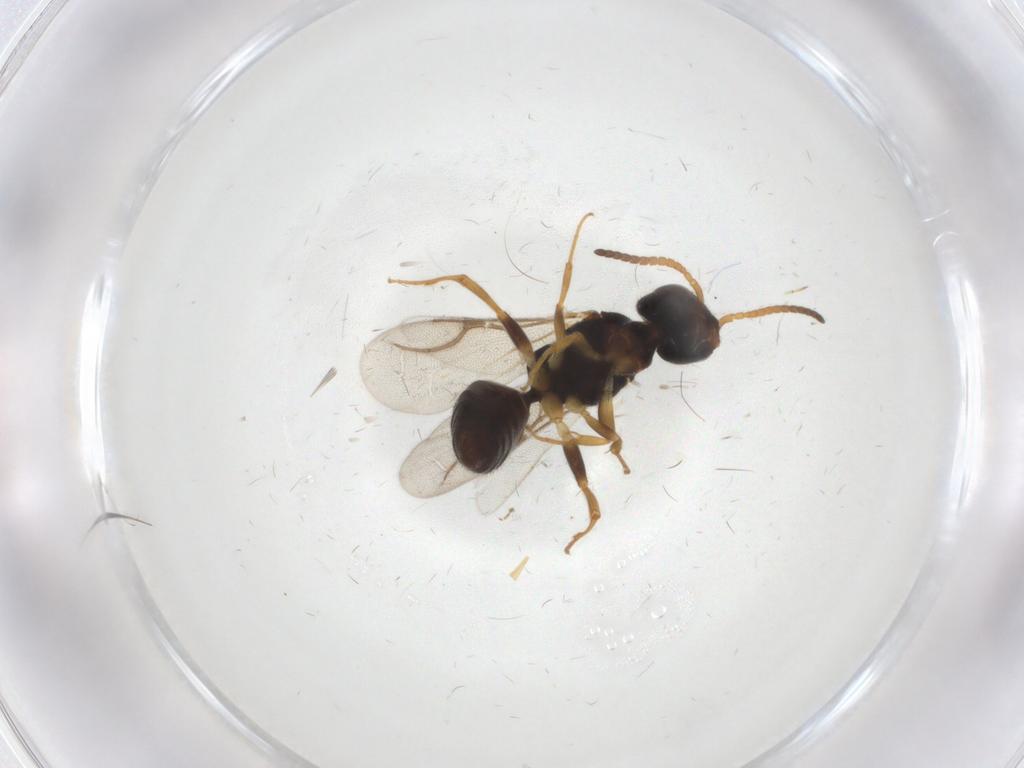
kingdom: Animalia
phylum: Arthropoda
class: Insecta
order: Hymenoptera
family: Bethylidae
